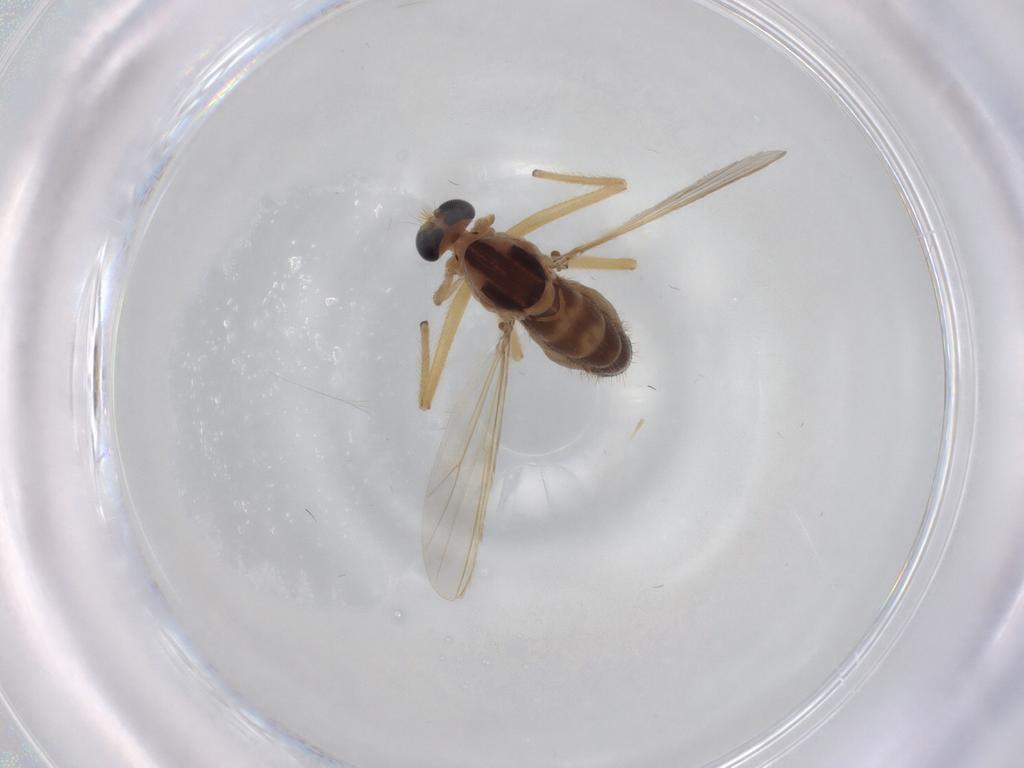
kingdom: Animalia
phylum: Arthropoda
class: Insecta
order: Diptera
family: Chironomidae
